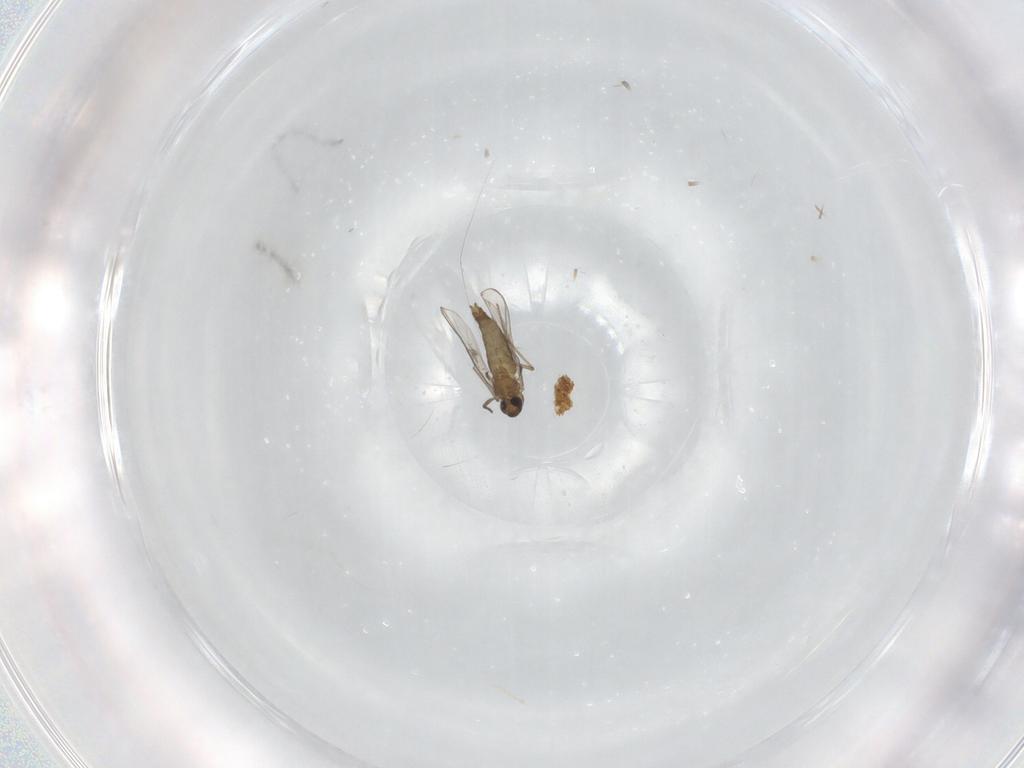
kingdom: Animalia
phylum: Arthropoda
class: Insecta
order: Diptera
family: Chironomidae
